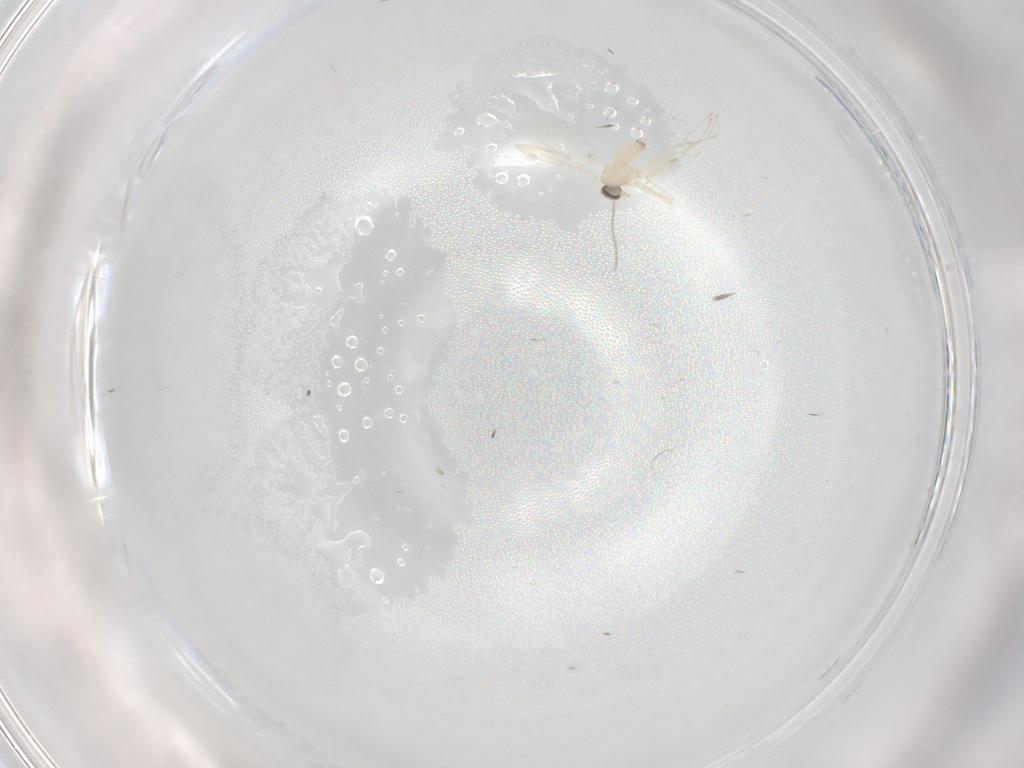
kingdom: Animalia
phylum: Arthropoda
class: Insecta
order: Diptera
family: Cecidomyiidae
